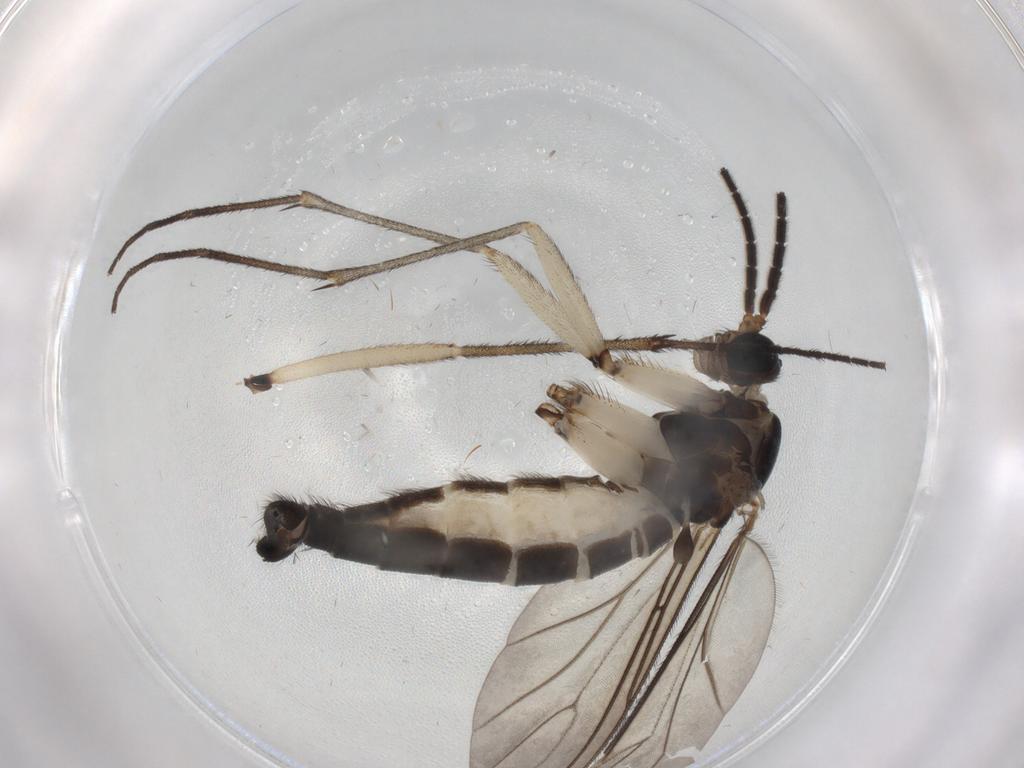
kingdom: Animalia
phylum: Arthropoda
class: Insecta
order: Diptera
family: Sciaridae
